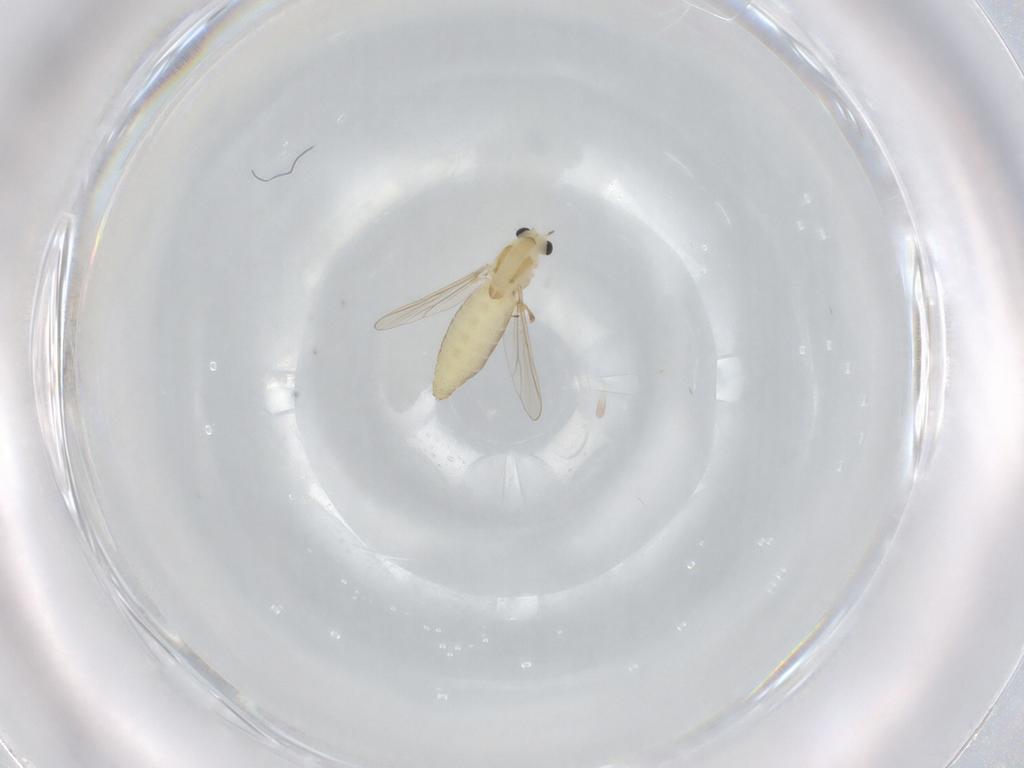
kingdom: Animalia
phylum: Arthropoda
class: Insecta
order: Diptera
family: Chironomidae
